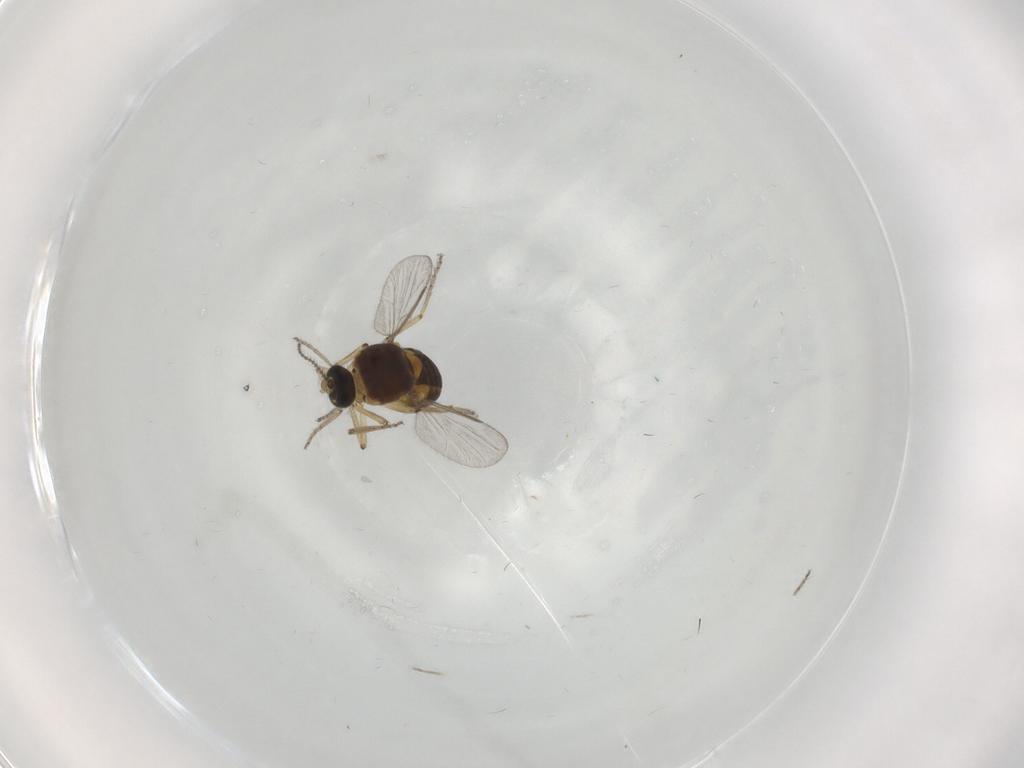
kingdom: Animalia
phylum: Arthropoda
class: Insecta
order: Diptera
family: Ceratopogonidae
